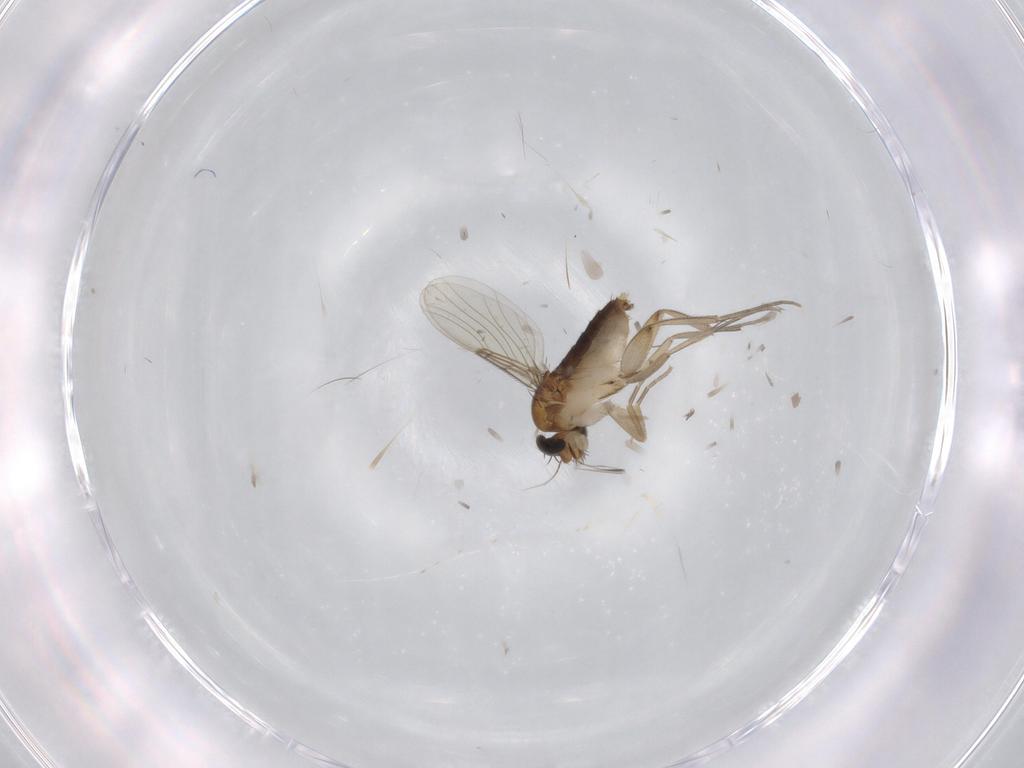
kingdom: Animalia
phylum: Arthropoda
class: Insecta
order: Diptera
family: Phoridae
